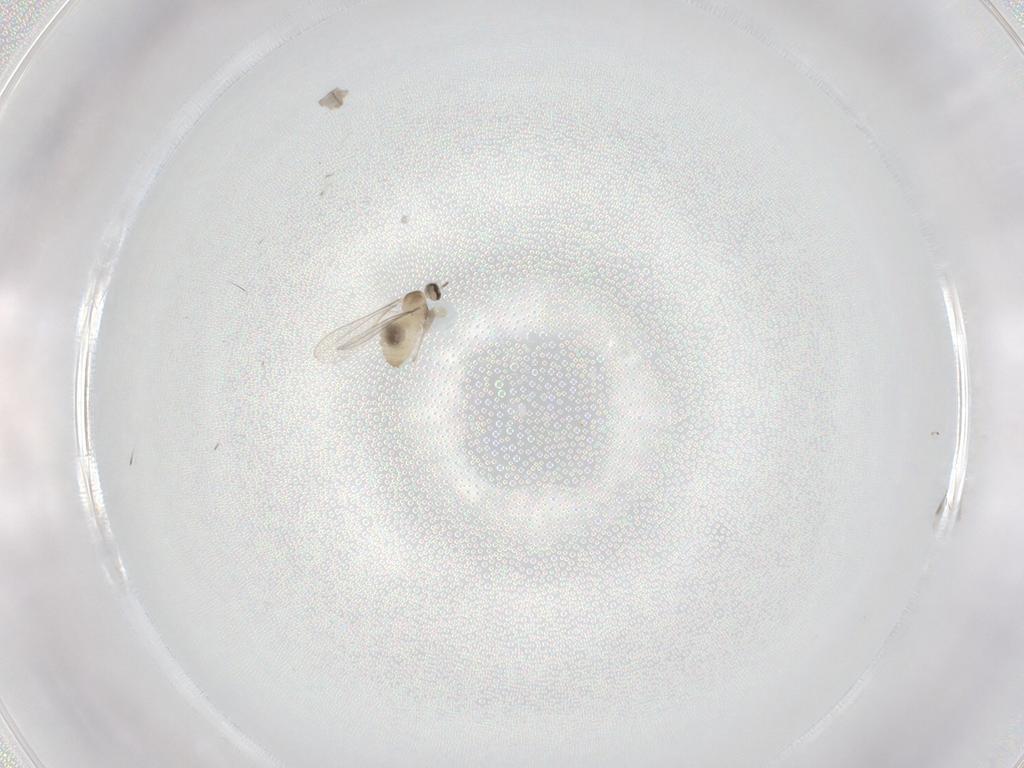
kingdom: Animalia
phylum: Arthropoda
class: Insecta
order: Diptera
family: Cecidomyiidae
